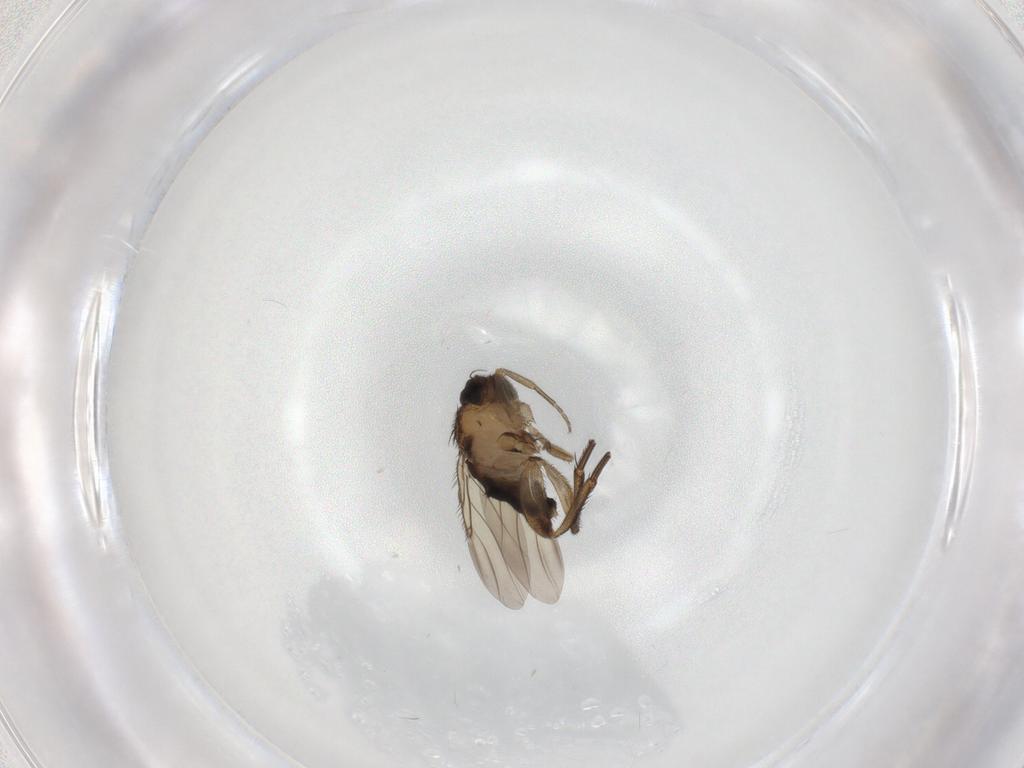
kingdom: Animalia
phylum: Arthropoda
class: Insecta
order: Diptera
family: Phoridae
